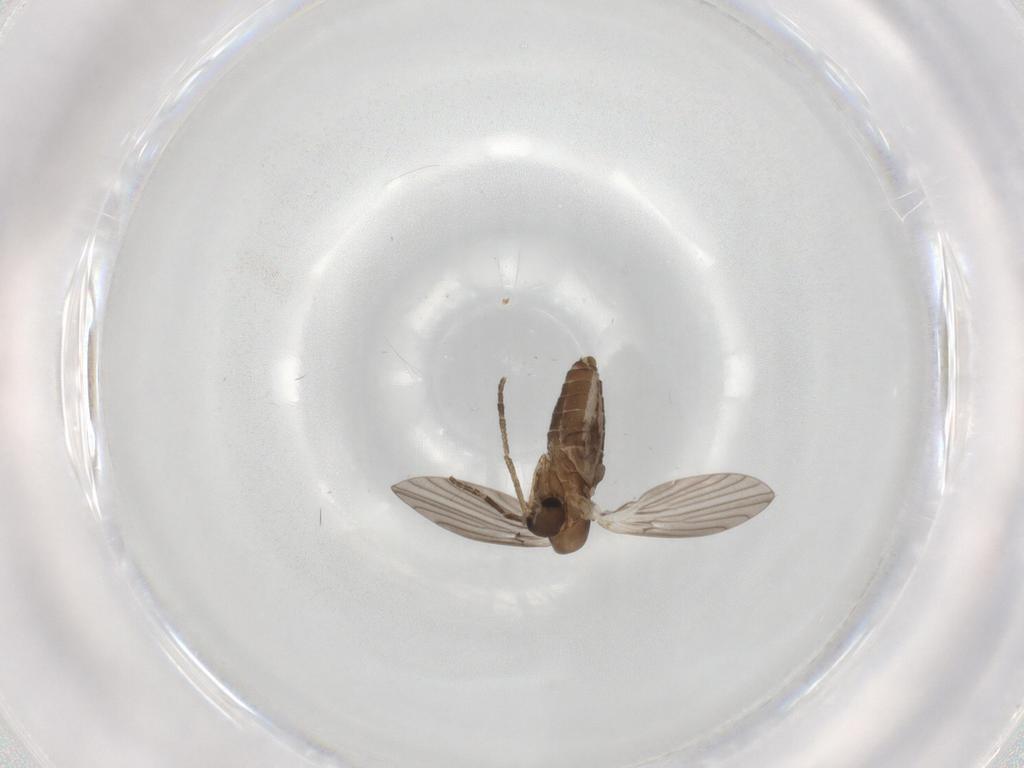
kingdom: Animalia
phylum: Arthropoda
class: Insecta
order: Diptera
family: Psychodidae
